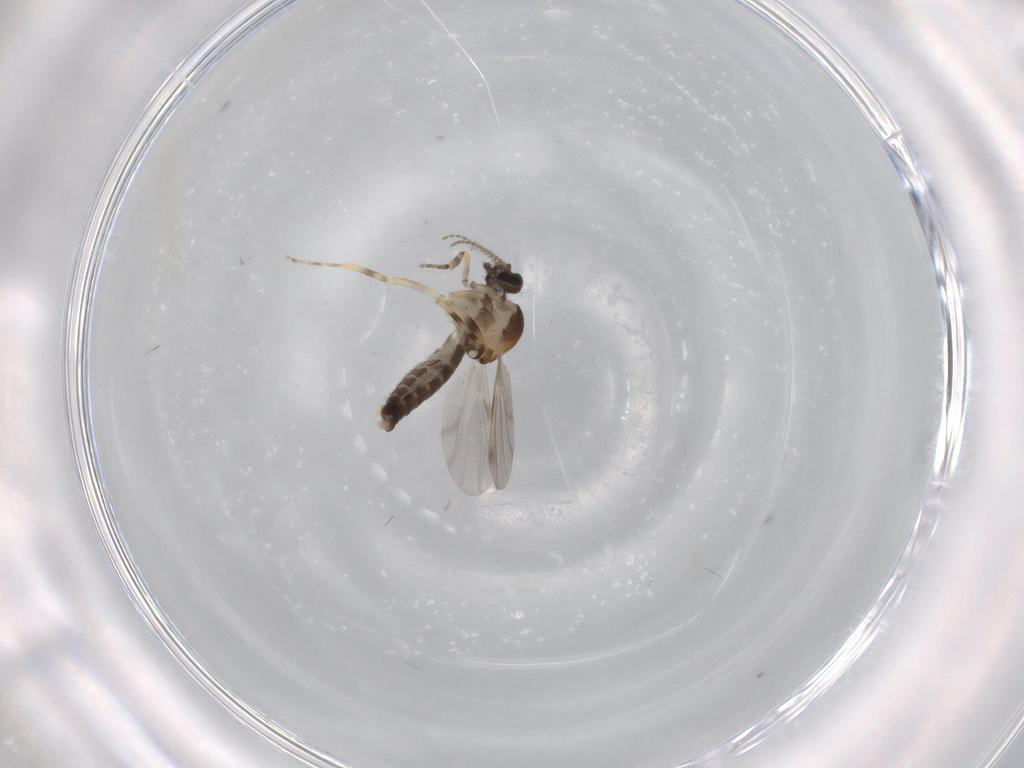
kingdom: Animalia
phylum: Arthropoda
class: Insecta
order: Diptera
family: Ceratopogonidae
